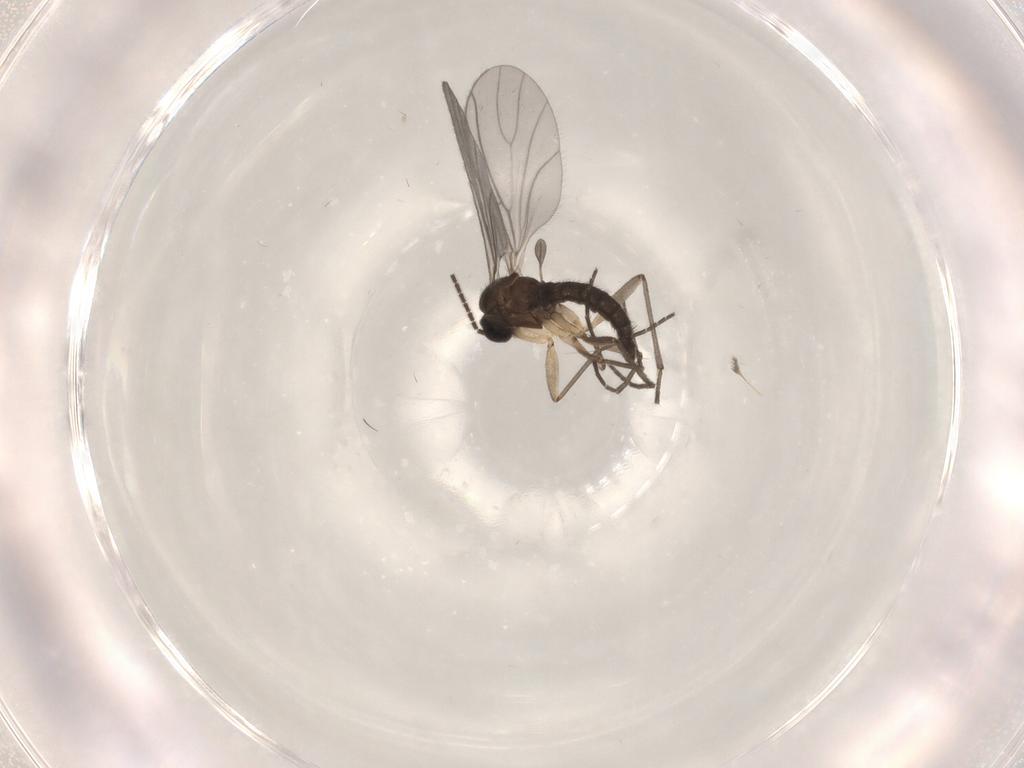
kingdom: Animalia
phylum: Arthropoda
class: Insecta
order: Diptera
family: Sciaridae
